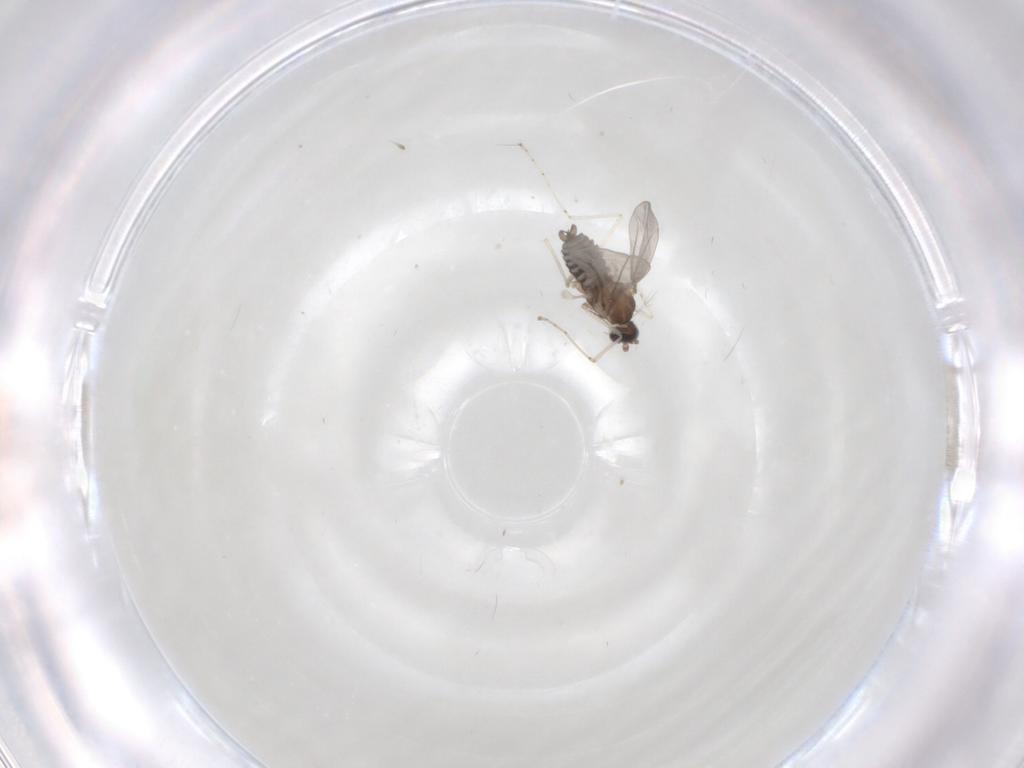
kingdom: Animalia
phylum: Arthropoda
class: Insecta
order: Diptera
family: Cecidomyiidae
